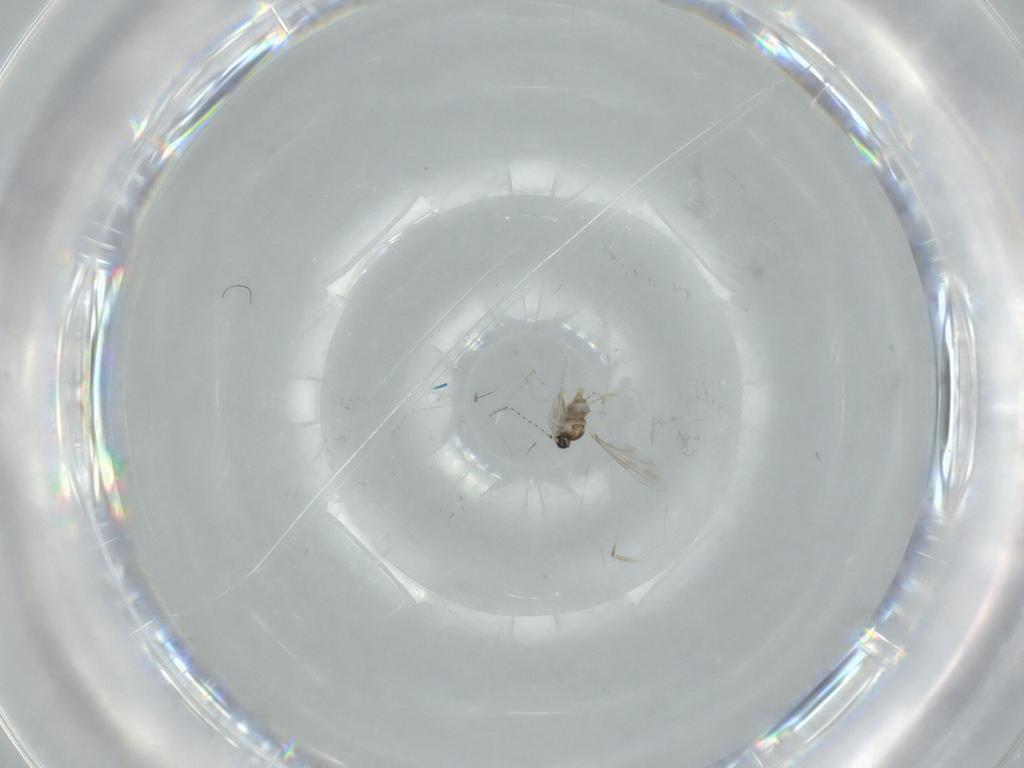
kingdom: Animalia
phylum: Arthropoda
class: Insecta
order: Diptera
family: Cecidomyiidae
